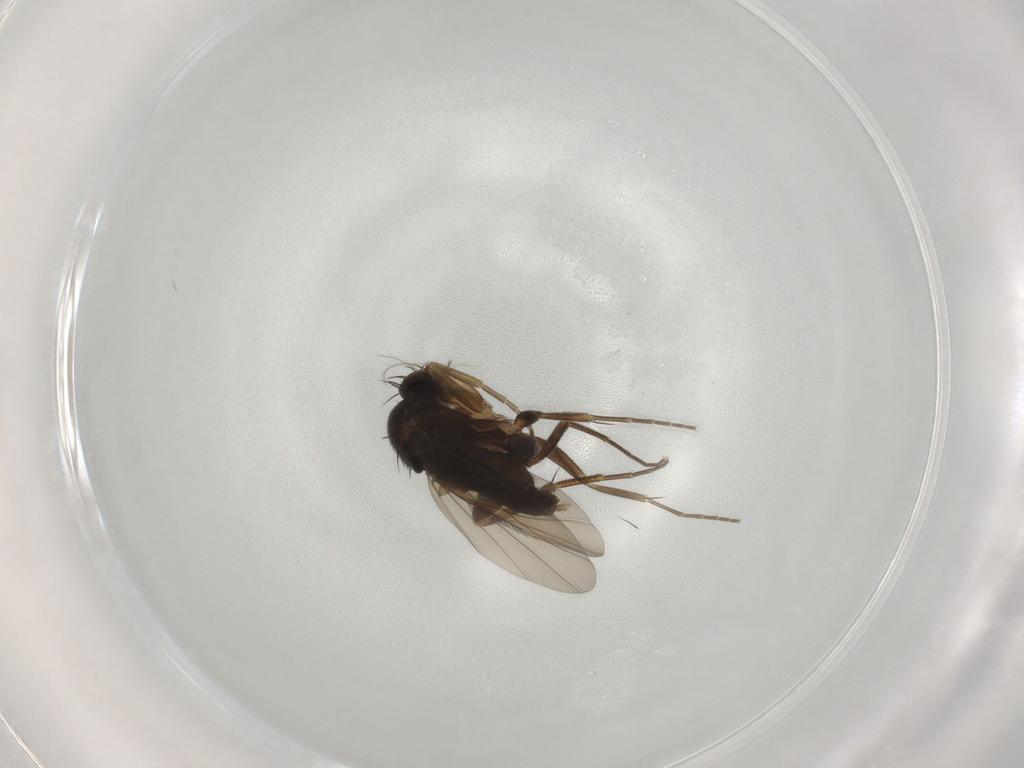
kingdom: Animalia
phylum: Arthropoda
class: Insecta
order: Diptera
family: Phoridae
